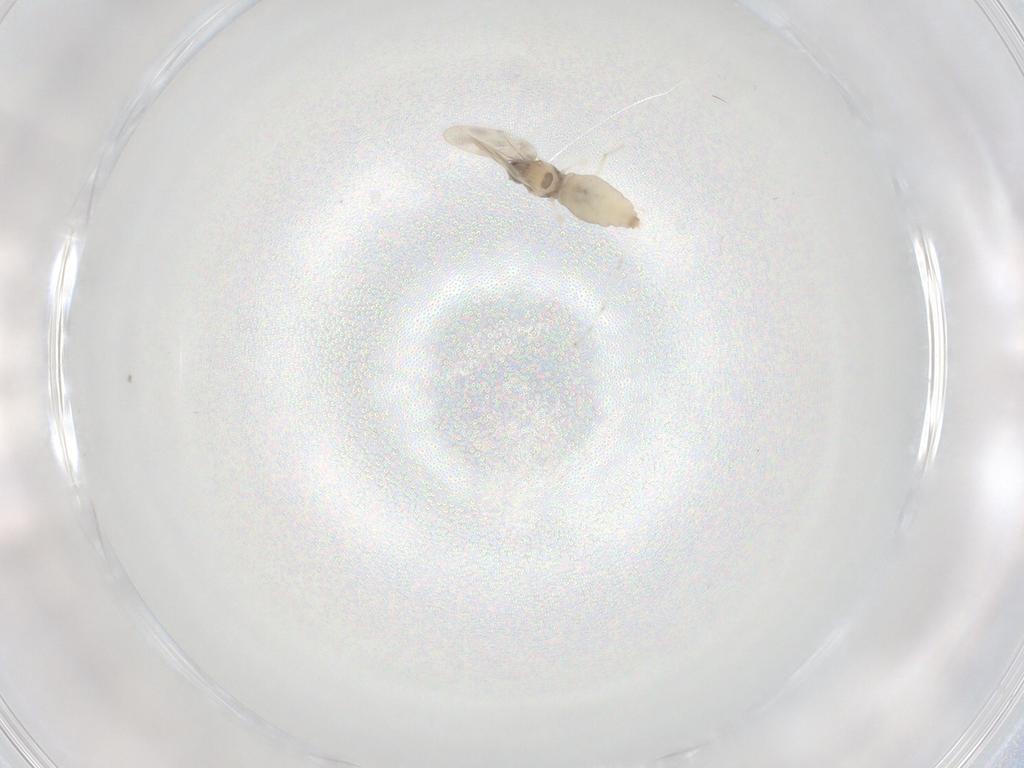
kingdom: Animalia
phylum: Arthropoda
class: Insecta
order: Diptera
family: Cecidomyiidae
